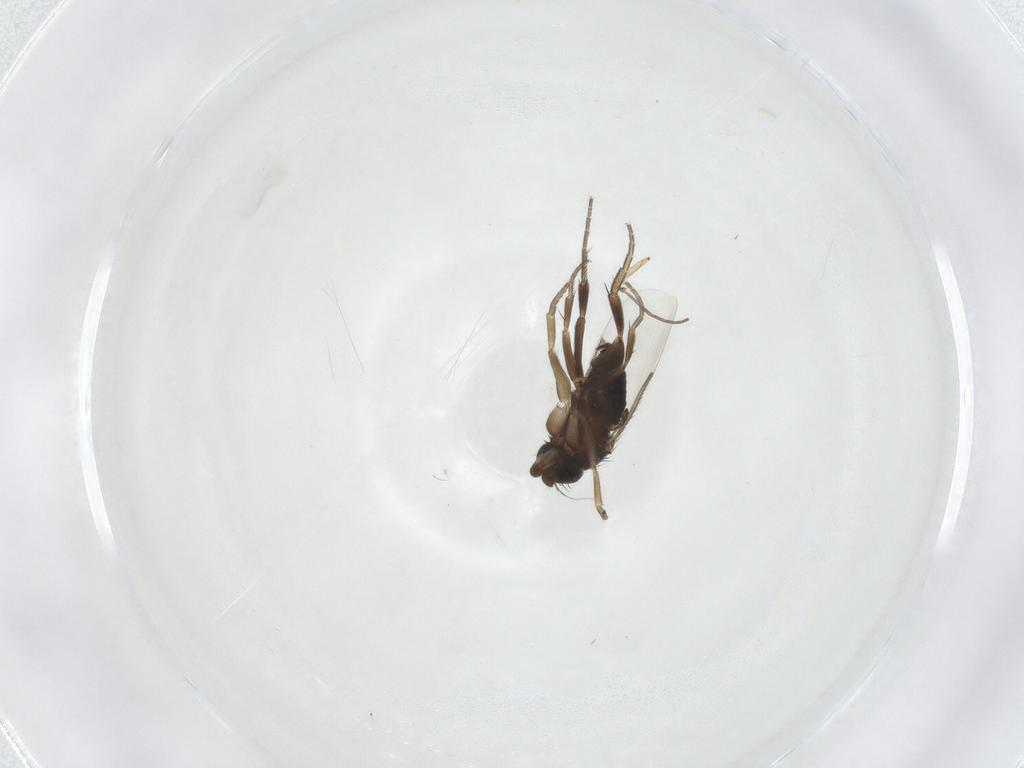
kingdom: Animalia
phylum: Arthropoda
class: Insecta
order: Diptera
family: Phoridae
